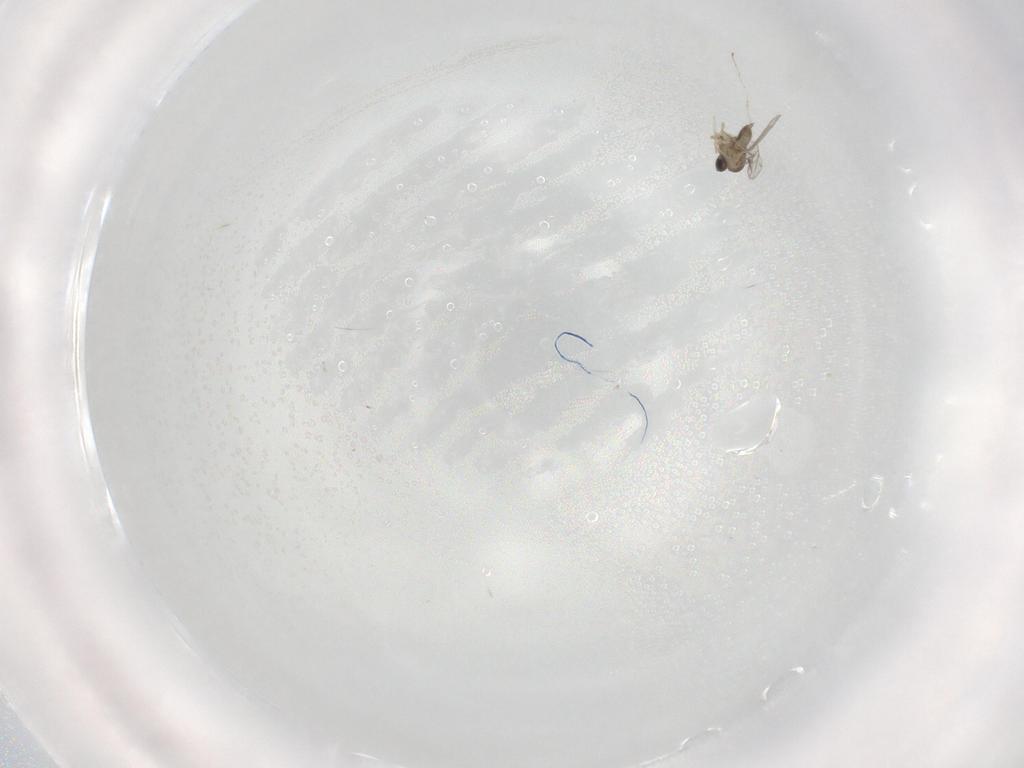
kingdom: Animalia
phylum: Arthropoda
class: Insecta
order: Diptera
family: Cecidomyiidae
